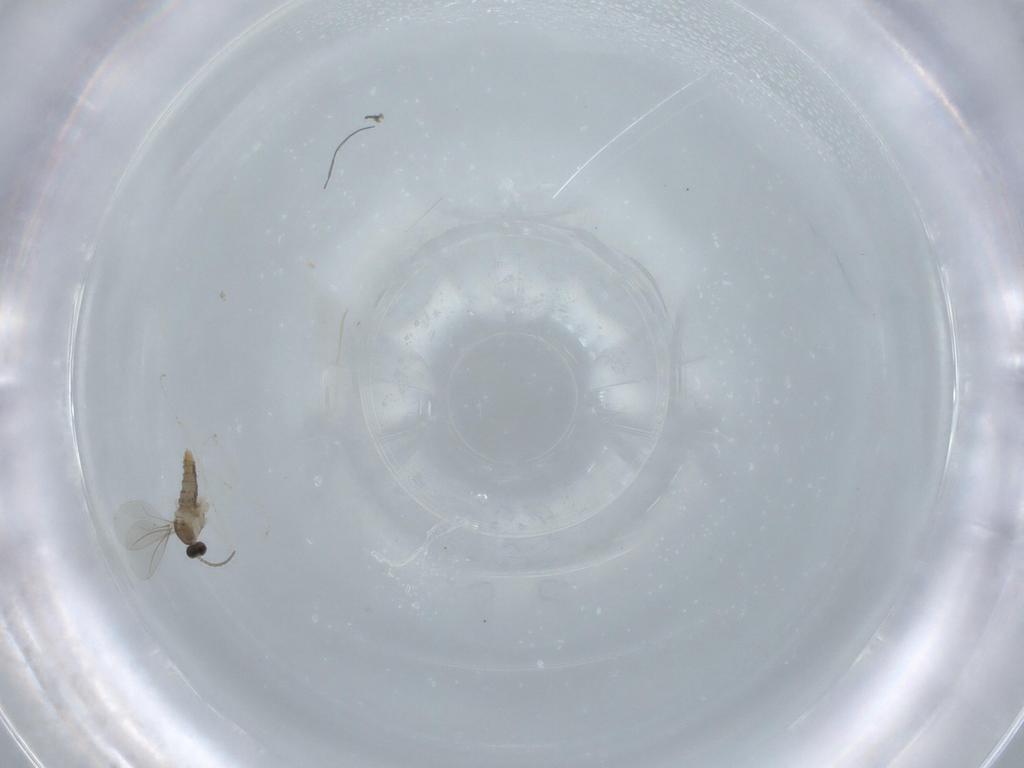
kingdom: Animalia
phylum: Arthropoda
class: Insecta
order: Diptera
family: Cecidomyiidae
